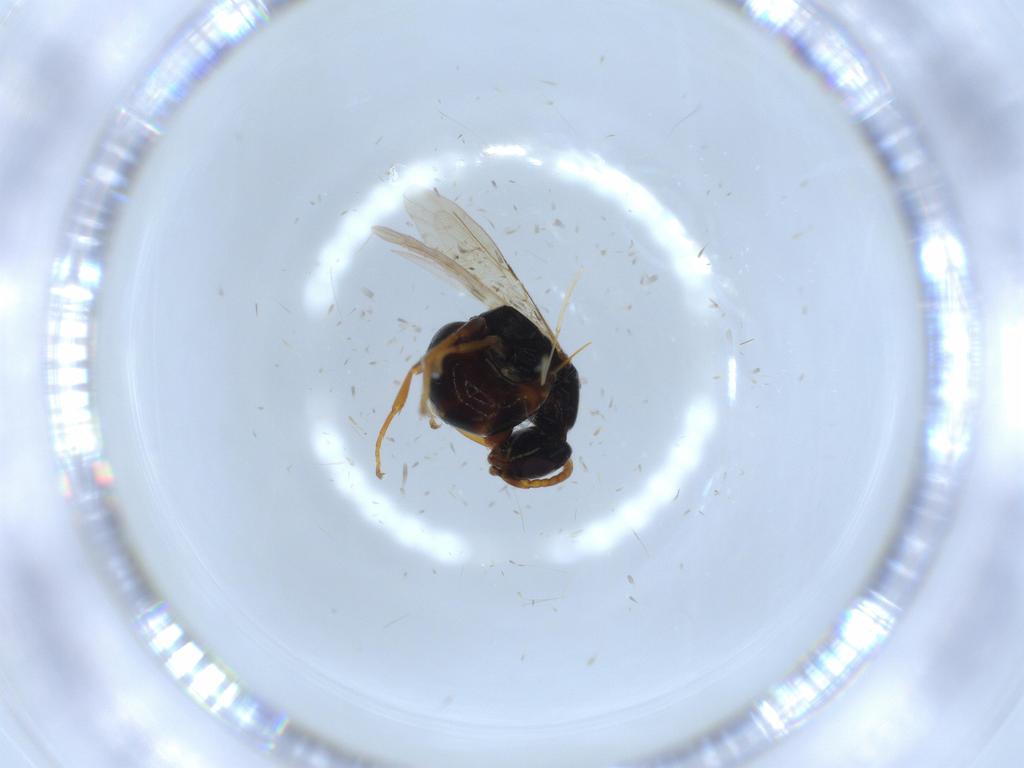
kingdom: Animalia
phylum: Arthropoda
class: Insecta
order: Hymenoptera
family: Bethylidae
